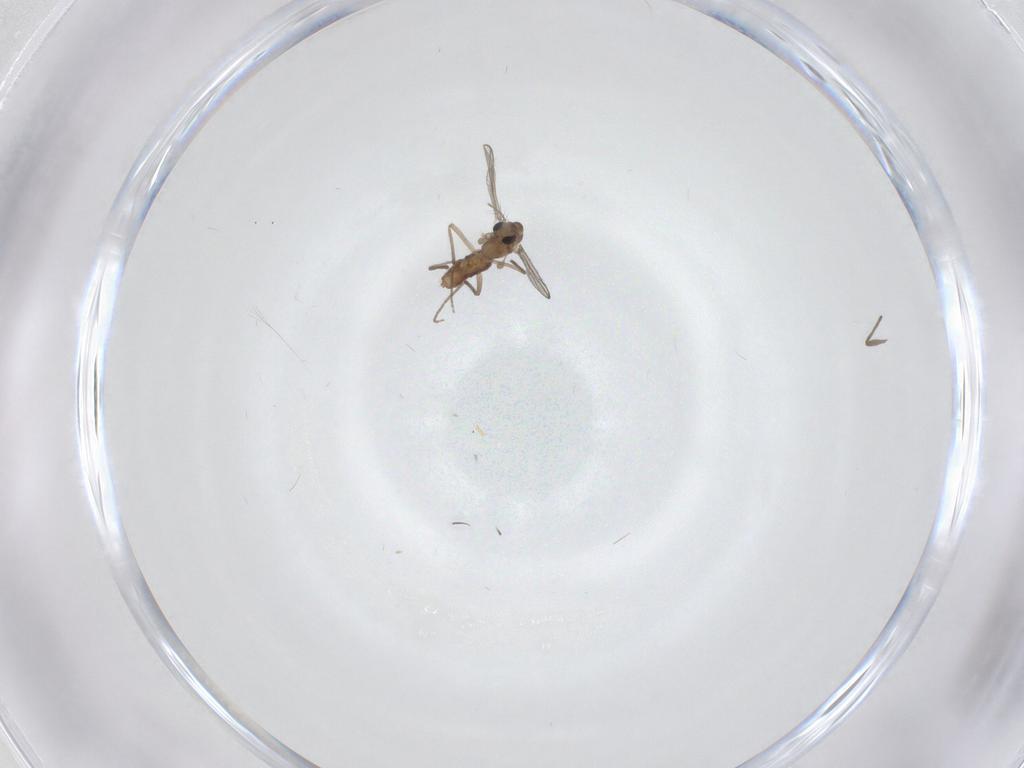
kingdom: Animalia
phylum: Arthropoda
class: Insecta
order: Diptera
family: Chironomidae
